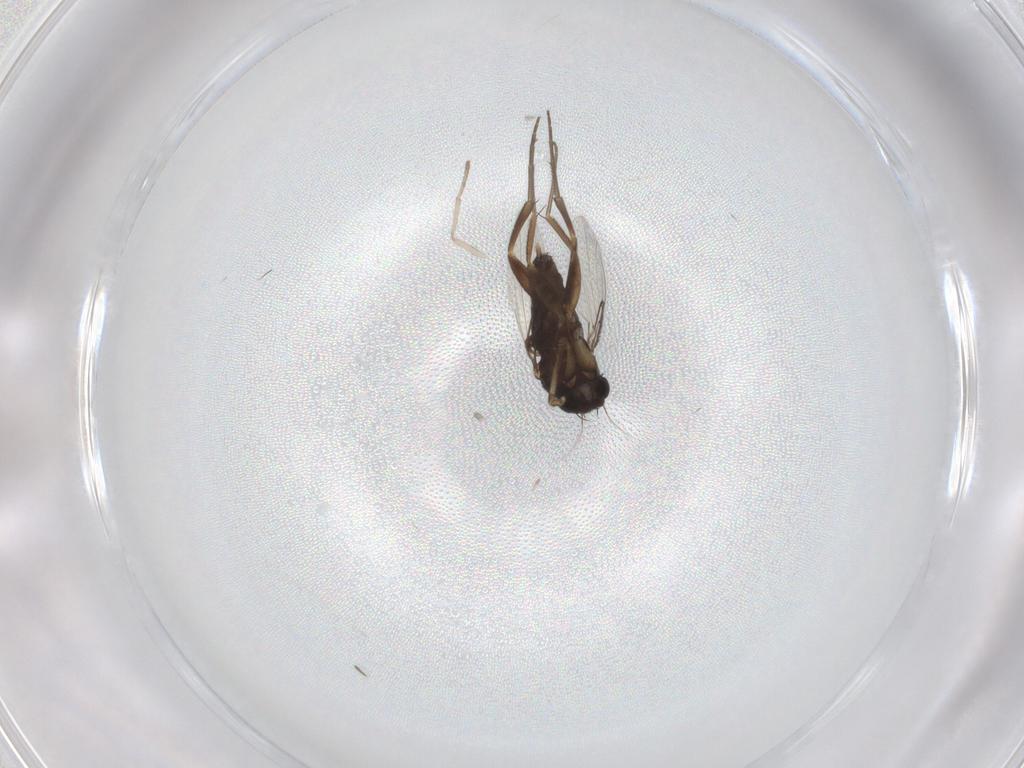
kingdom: Animalia
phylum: Arthropoda
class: Insecta
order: Diptera
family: Phoridae
